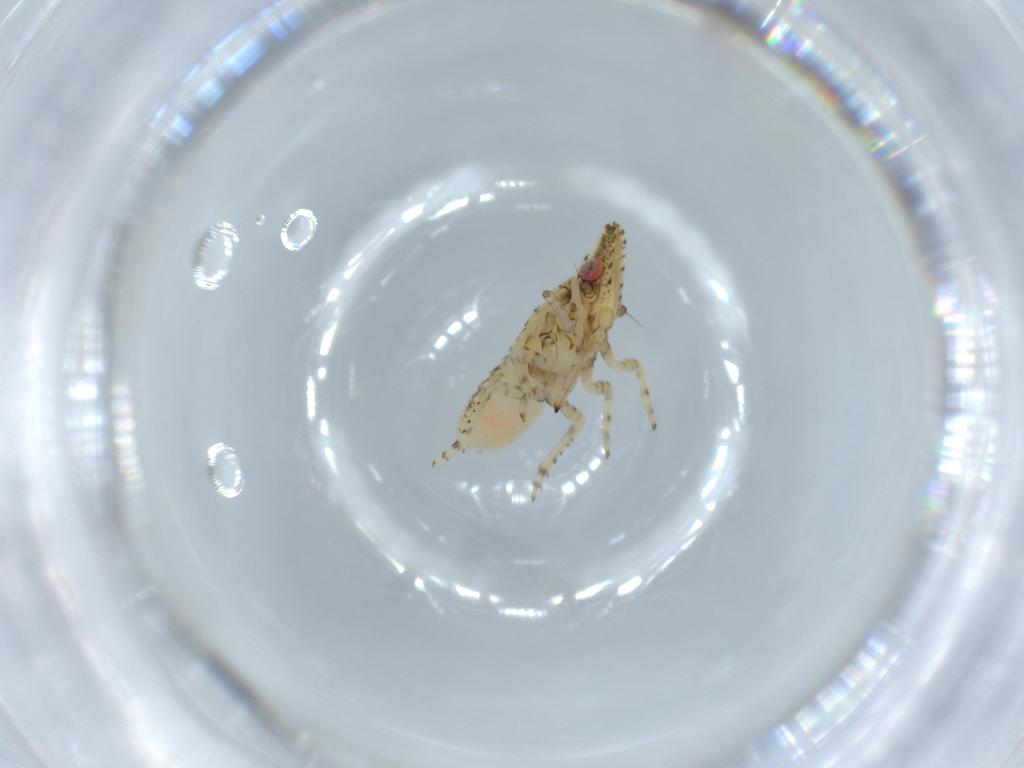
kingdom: Animalia
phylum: Arthropoda
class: Insecta
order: Hemiptera
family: Dictyopharidae
